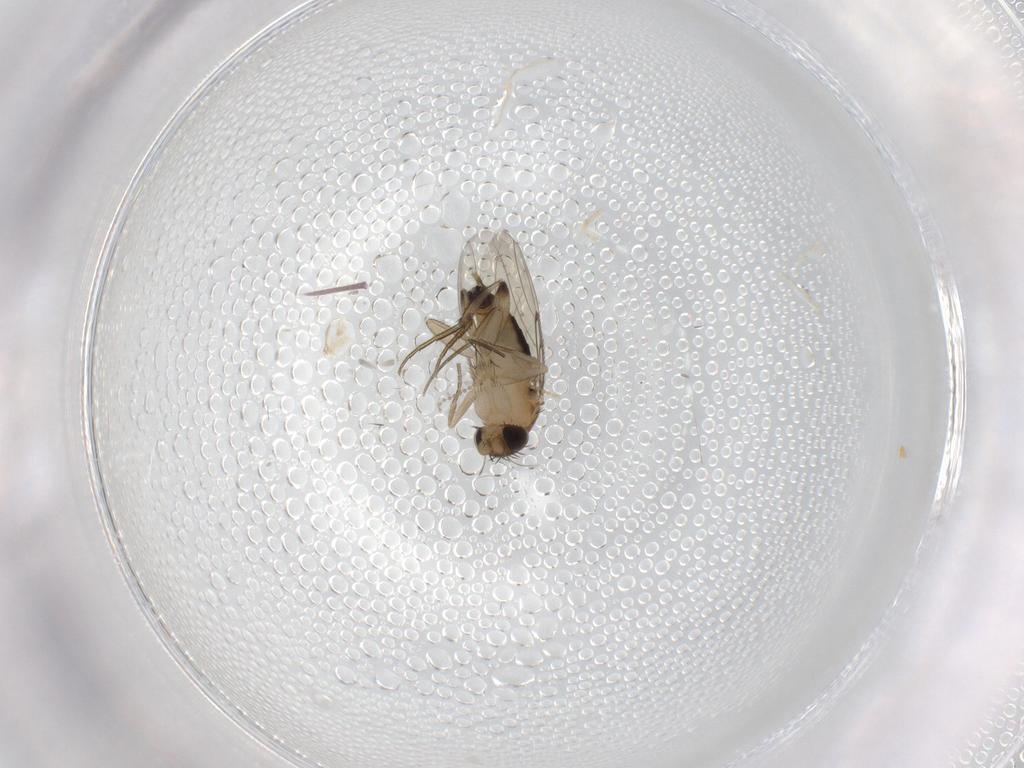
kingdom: Animalia
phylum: Arthropoda
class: Insecta
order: Diptera
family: Phoridae
